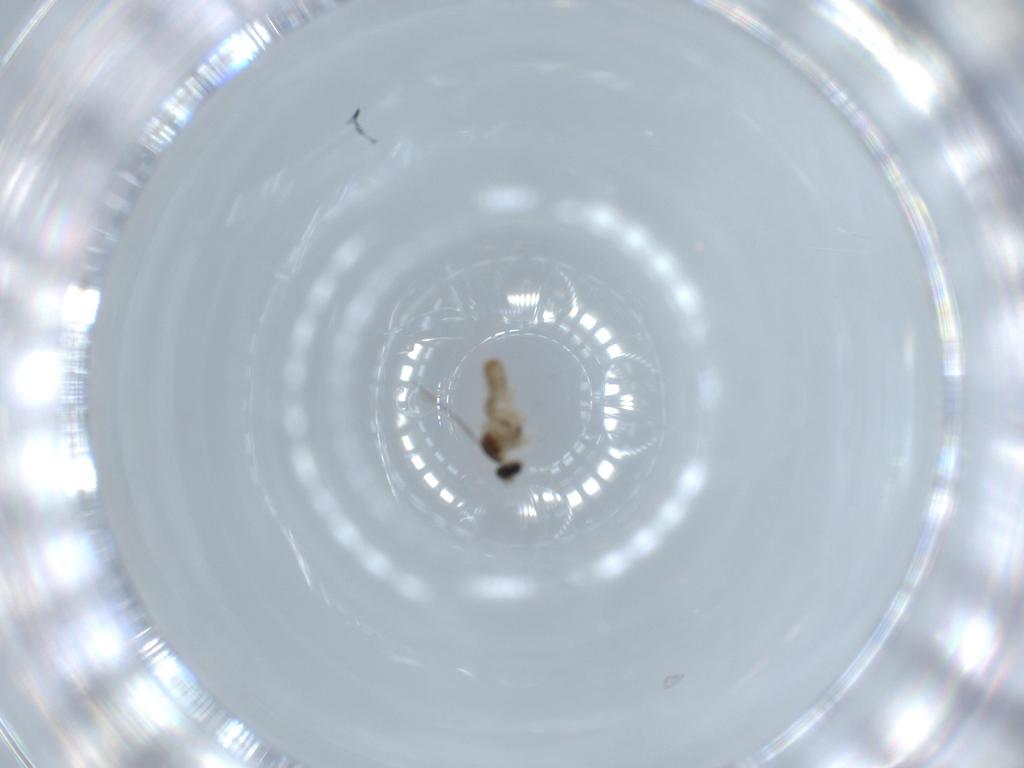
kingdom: Animalia
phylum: Arthropoda
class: Insecta
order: Diptera
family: Cecidomyiidae
